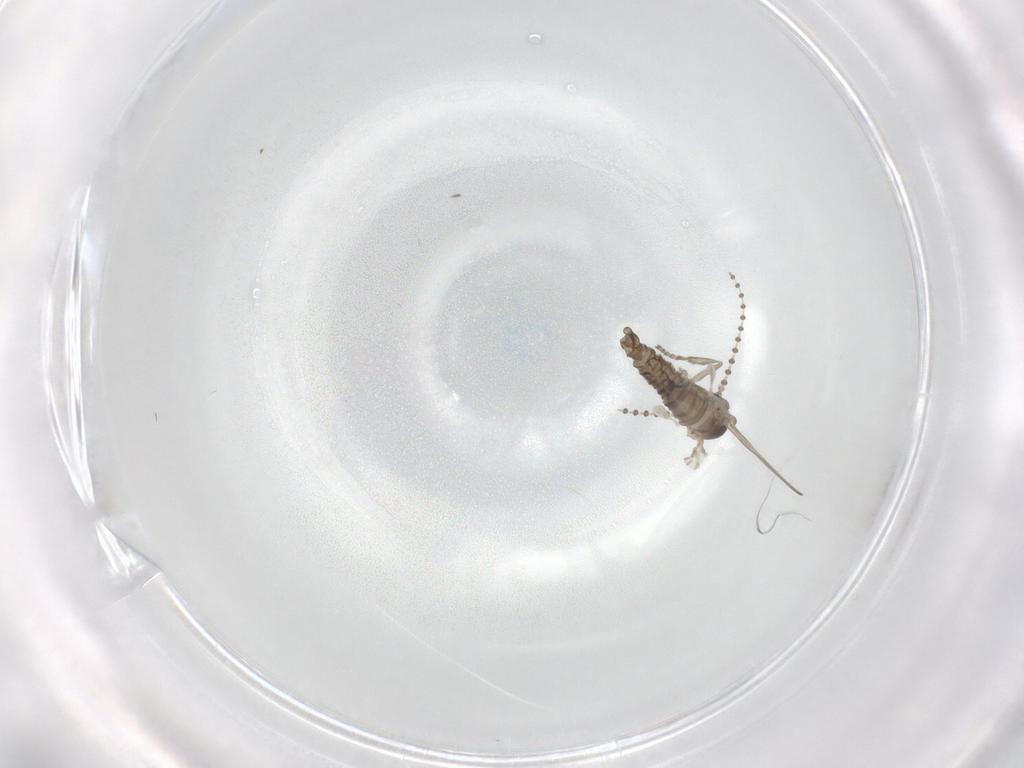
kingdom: Animalia
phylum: Arthropoda
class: Insecta
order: Diptera
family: Psychodidae
